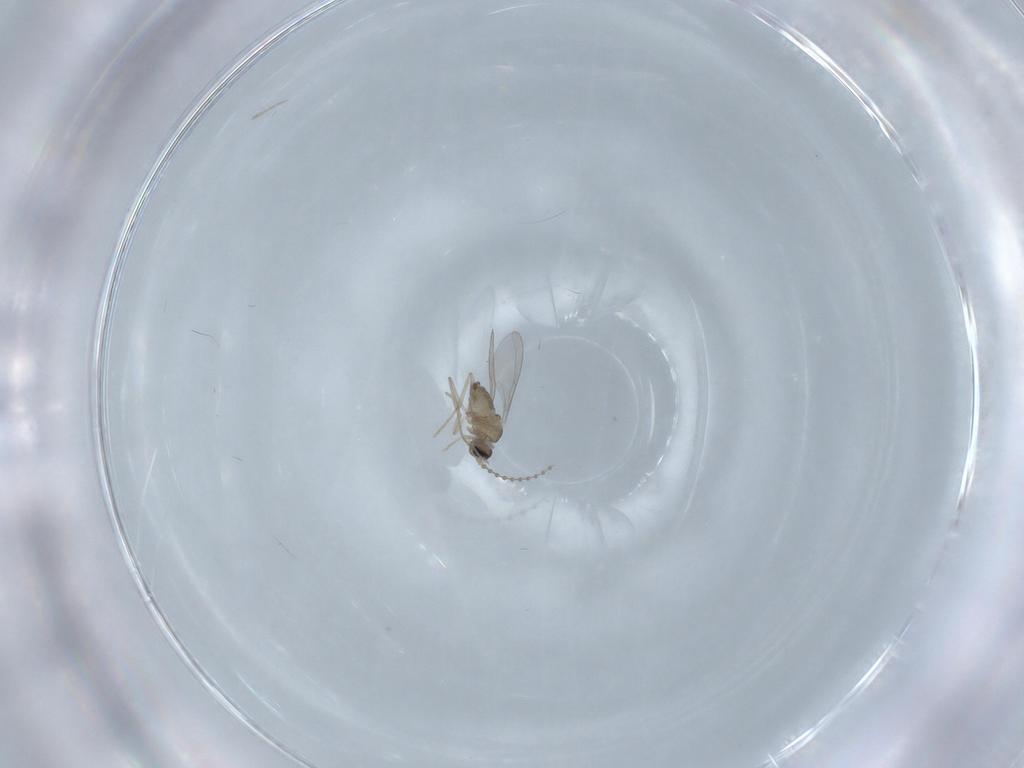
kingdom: Animalia
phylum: Arthropoda
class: Insecta
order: Diptera
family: Cecidomyiidae
